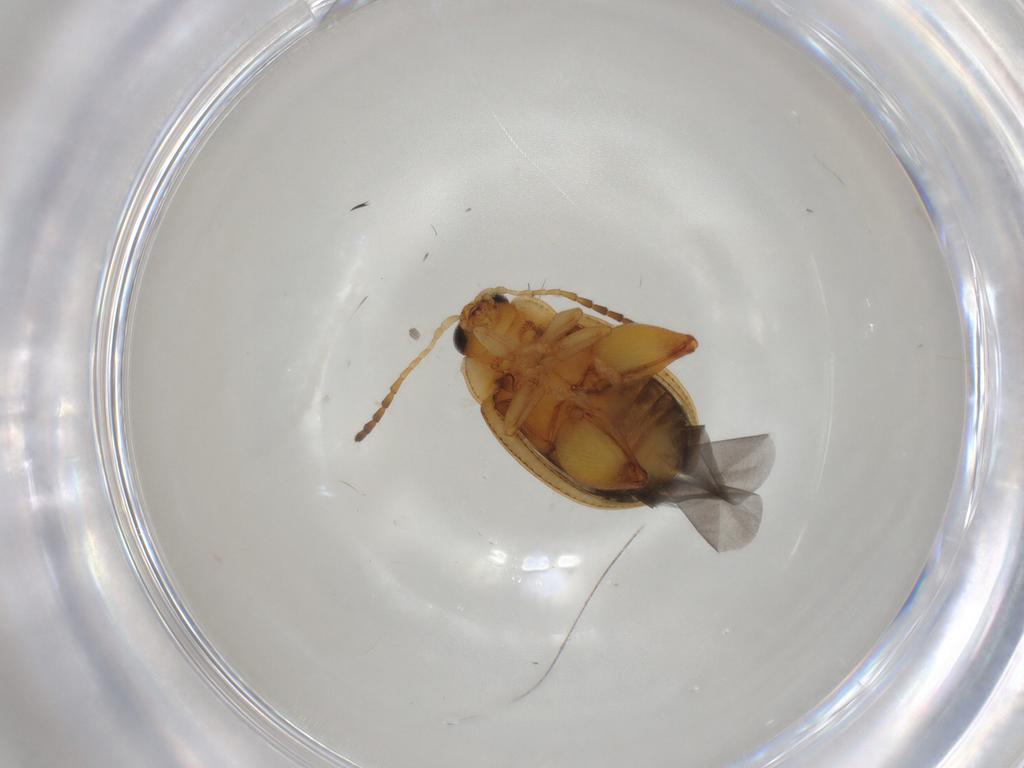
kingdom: Animalia
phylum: Arthropoda
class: Insecta
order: Coleoptera
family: Chrysomelidae
